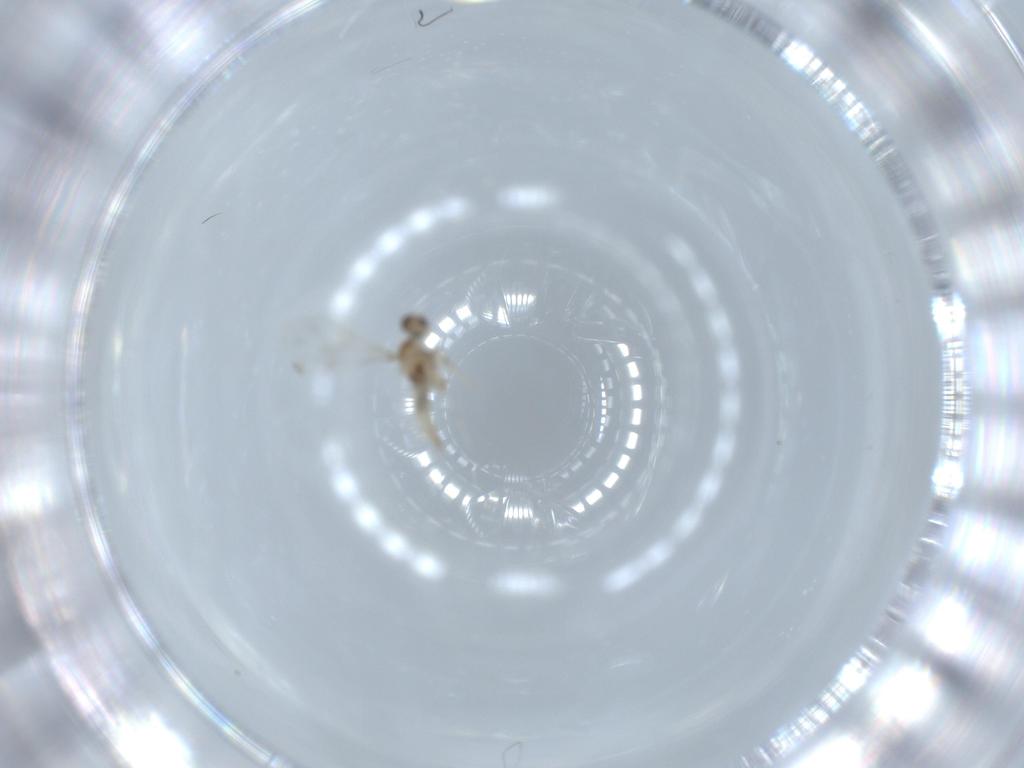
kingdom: Animalia
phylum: Arthropoda
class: Insecta
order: Diptera
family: Cecidomyiidae
